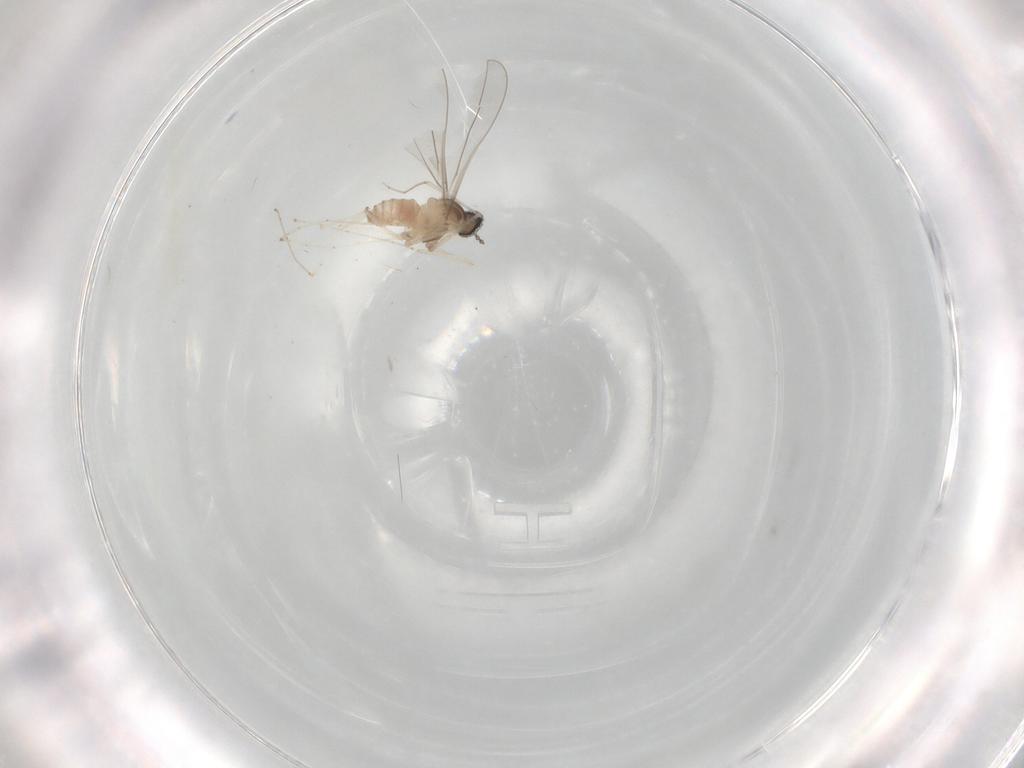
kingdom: Animalia
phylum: Arthropoda
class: Insecta
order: Diptera
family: Cecidomyiidae
